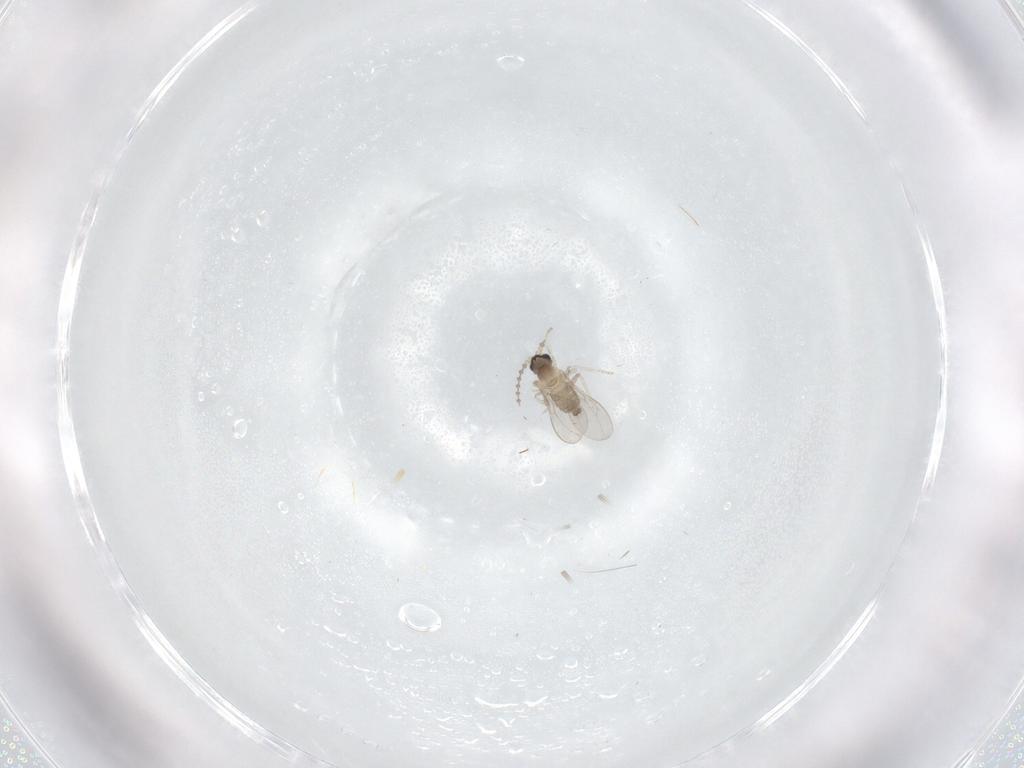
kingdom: Animalia
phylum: Arthropoda
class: Insecta
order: Diptera
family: Cecidomyiidae
